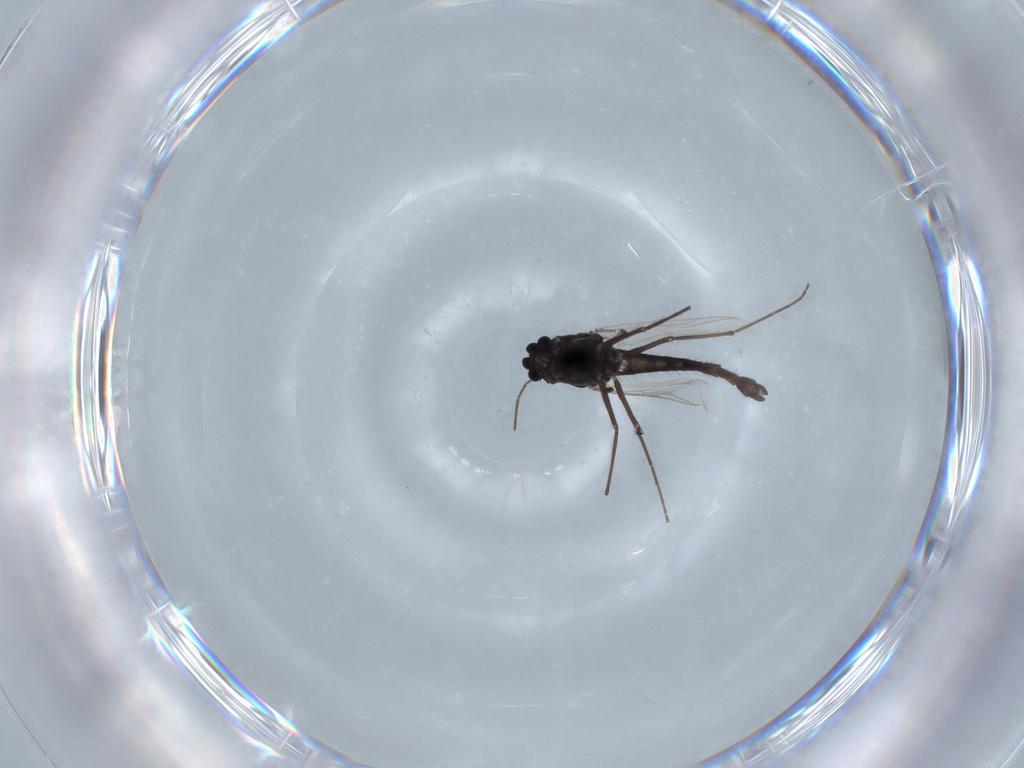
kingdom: Animalia
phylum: Arthropoda
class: Insecta
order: Diptera
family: Chironomidae
